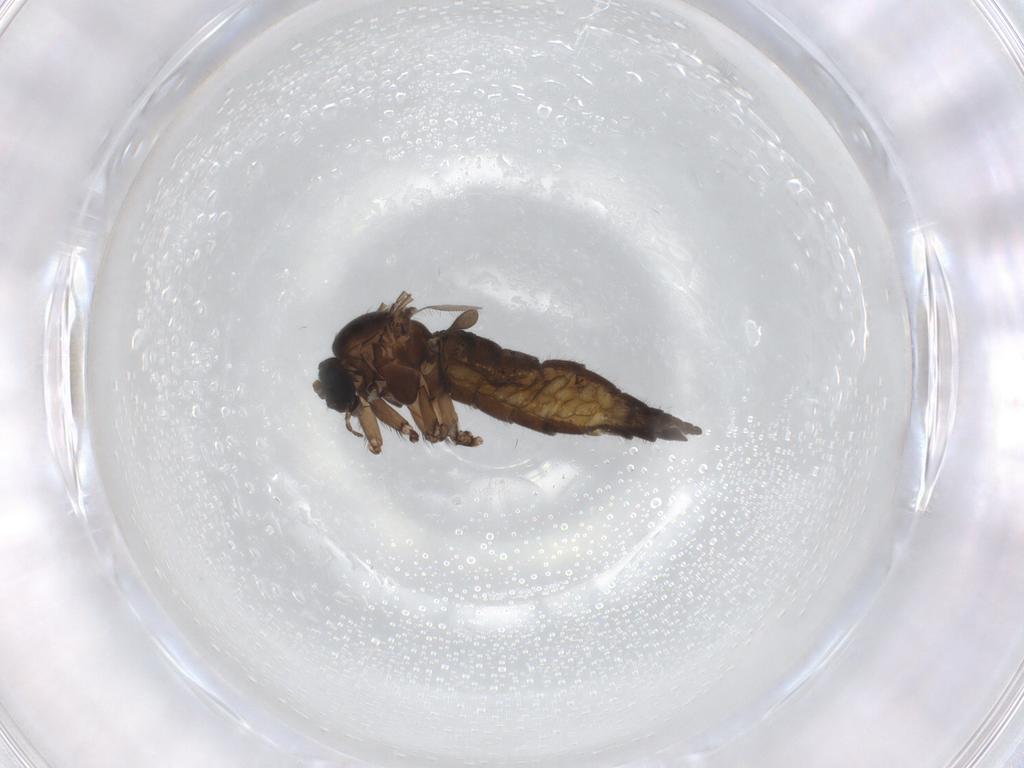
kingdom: Animalia
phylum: Arthropoda
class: Insecta
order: Diptera
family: Sciaridae
